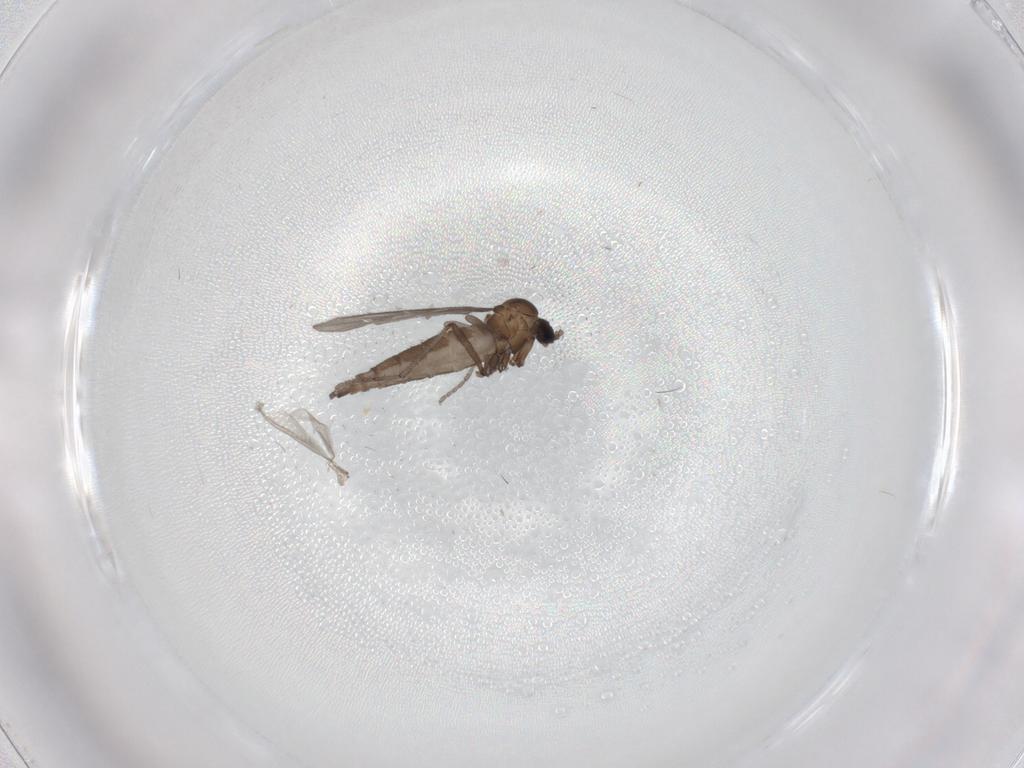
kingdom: Animalia
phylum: Arthropoda
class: Insecta
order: Diptera
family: Sciaridae
